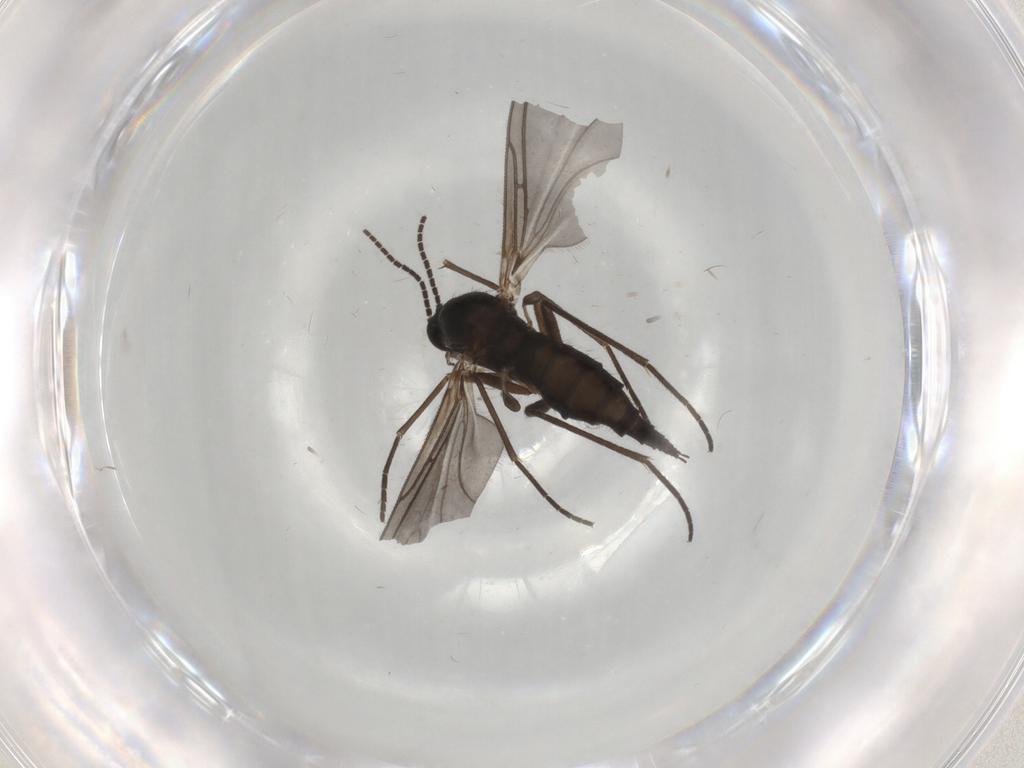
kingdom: Animalia
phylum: Arthropoda
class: Insecta
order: Diptera
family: Sciaridae
